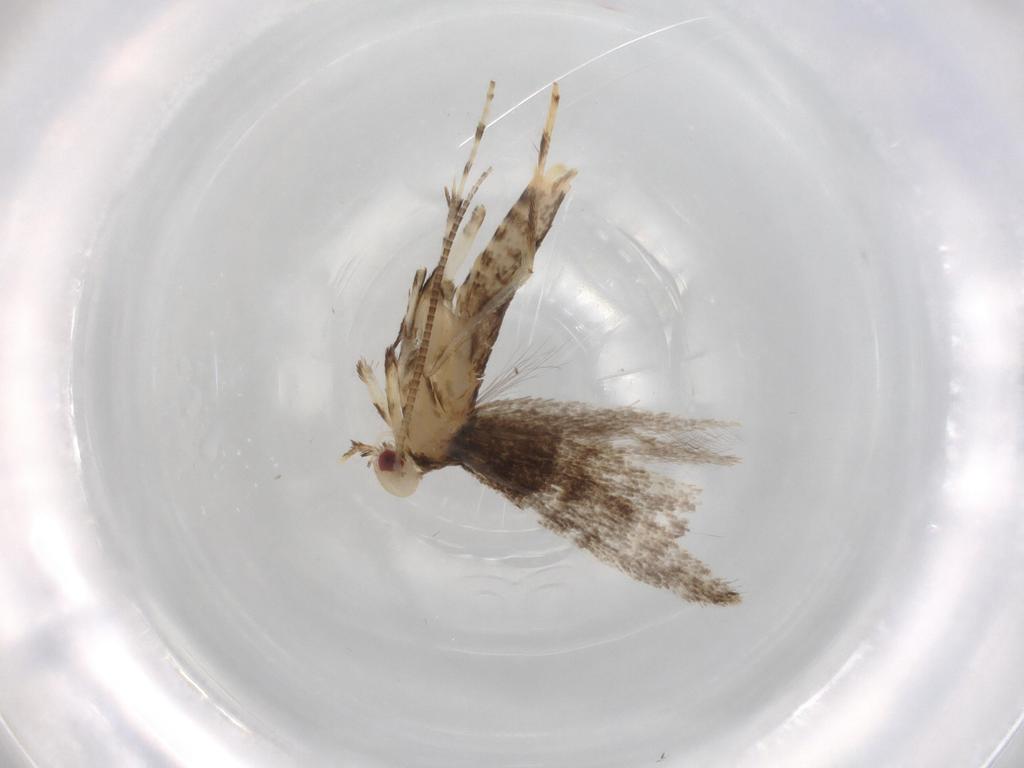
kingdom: Animalia
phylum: Arthropoda
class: Insecta
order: Lepidoptera
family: Gracillariidae
